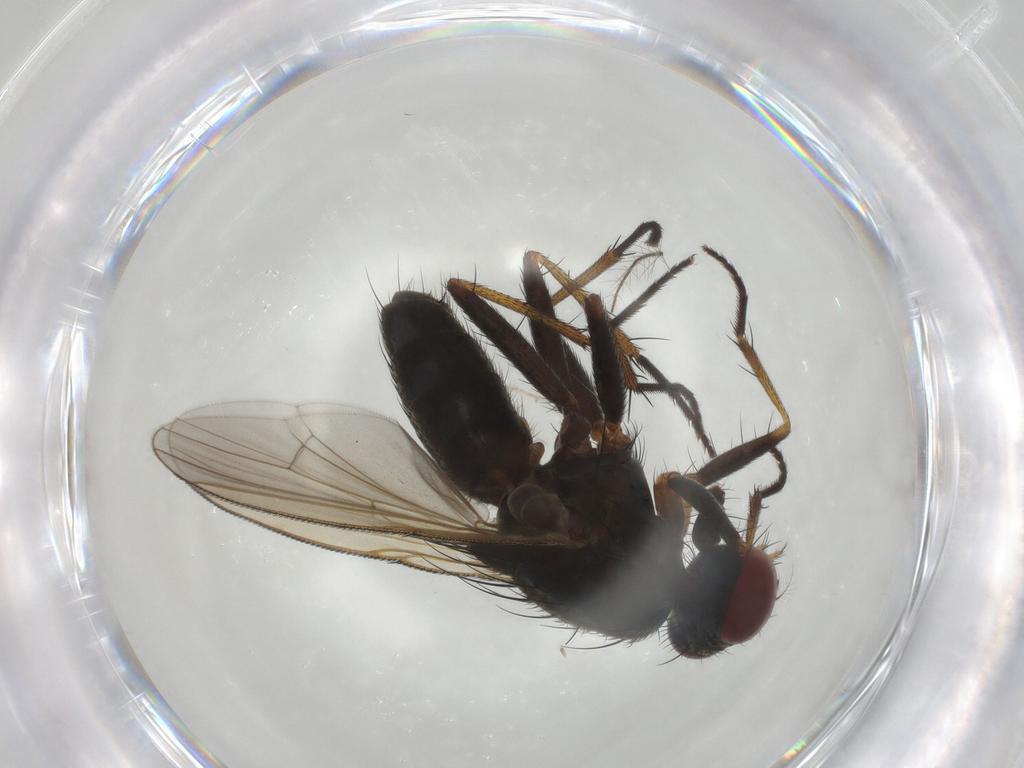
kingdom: Animalia
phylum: Arthropoda
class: Insecta
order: Diptera
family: Muscidae
